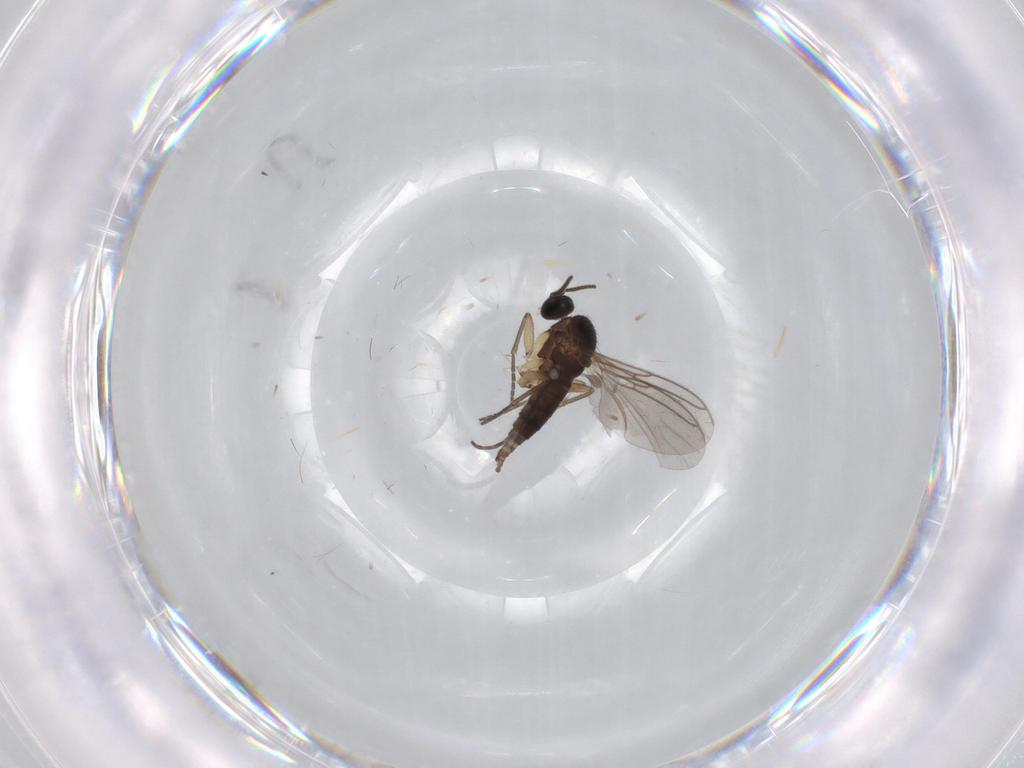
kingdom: Animalia
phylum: Arthropoda
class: Insecta
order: Diptera
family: Sciaridae
